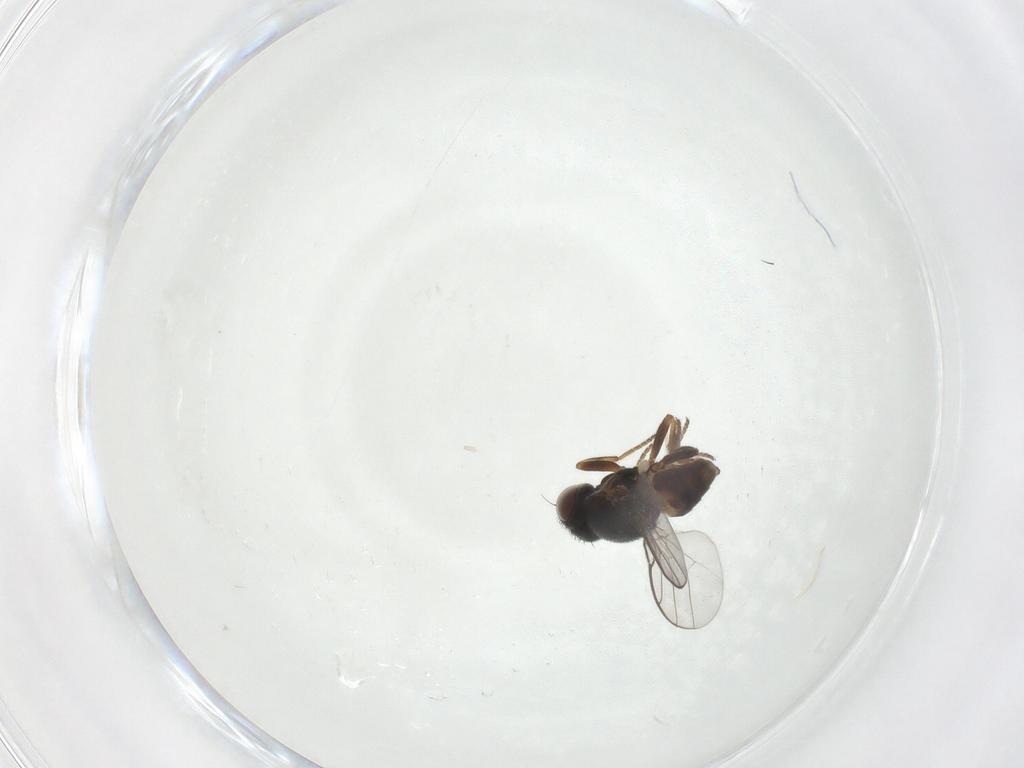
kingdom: Animalia
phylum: Arthropoda
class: Insecta
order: Diptera
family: Chloropidae
